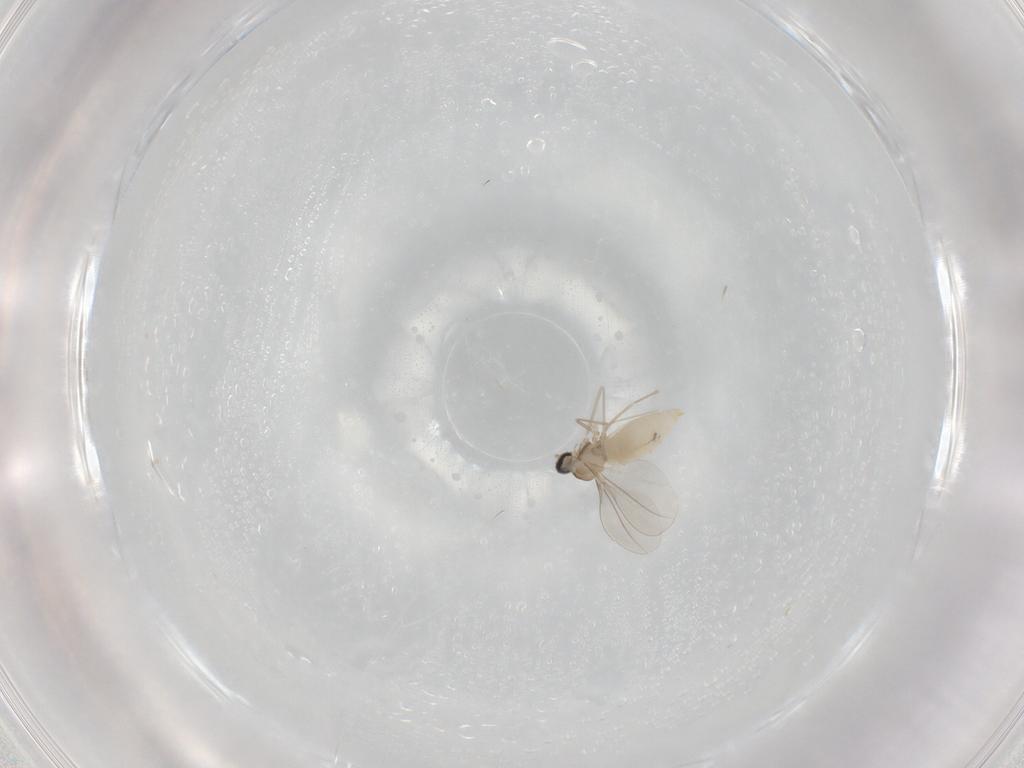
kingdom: Animalia
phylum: Arthropoda
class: Insecta
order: Diptera
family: Cecidomyiidae
